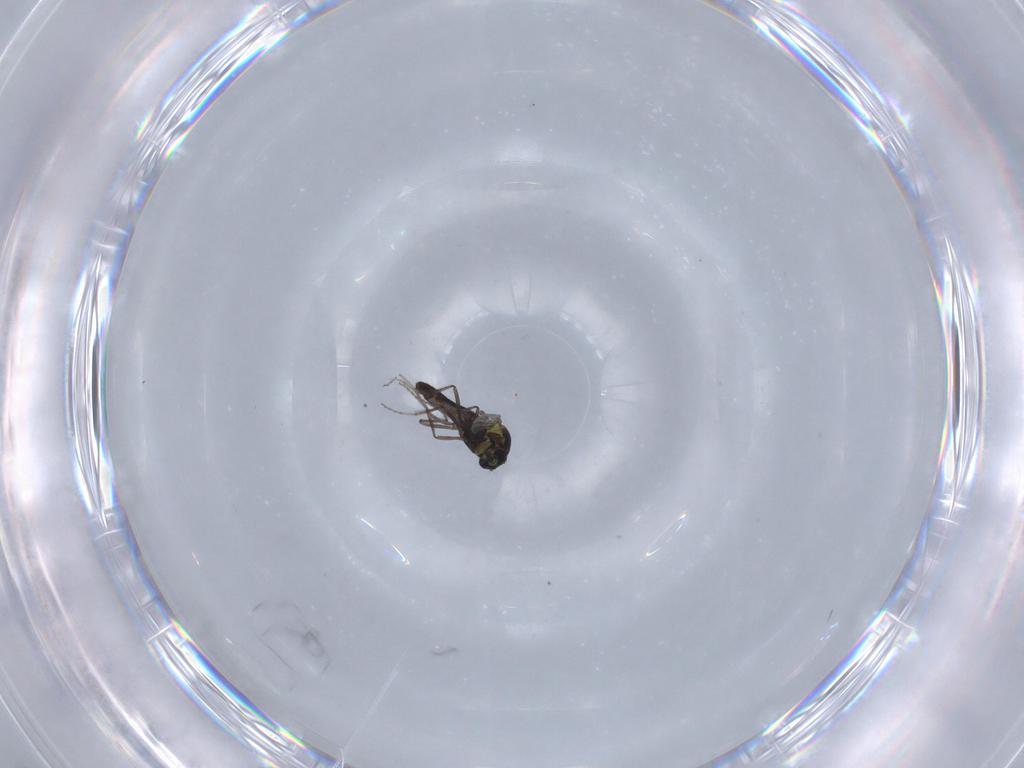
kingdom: Animalia
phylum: Arthropoda
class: Insecta
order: Diptera
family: Ceratopogonidae
